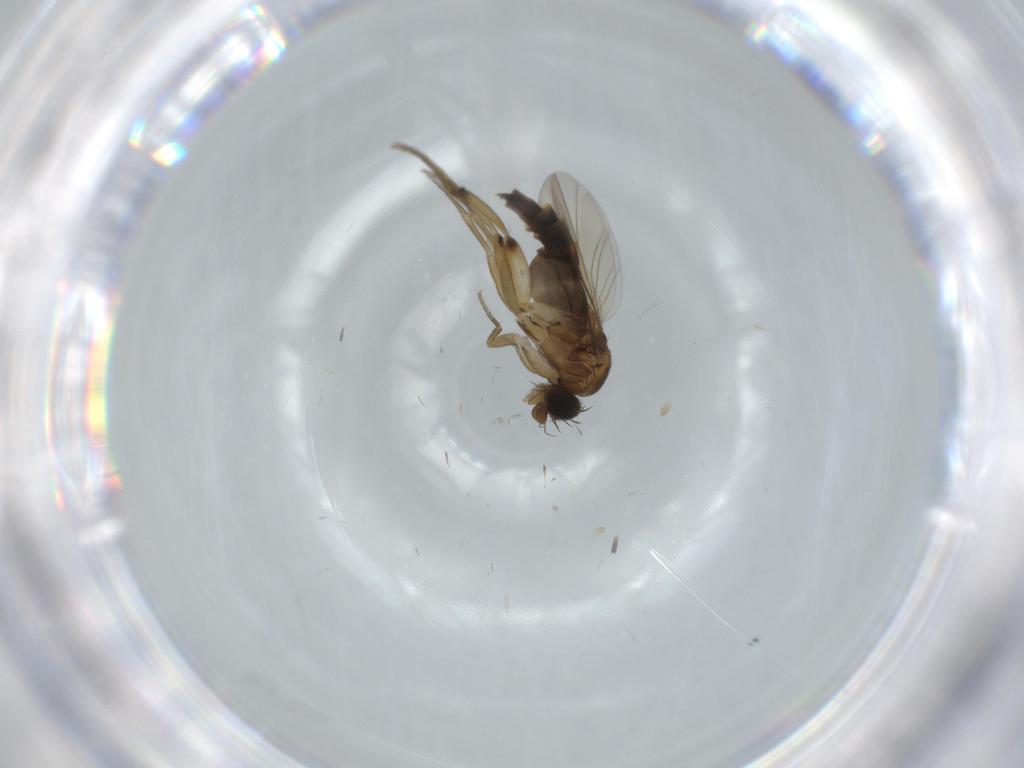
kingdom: Animalia
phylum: Arthropoda
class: Insecta
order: Diptera
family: Phoridae
